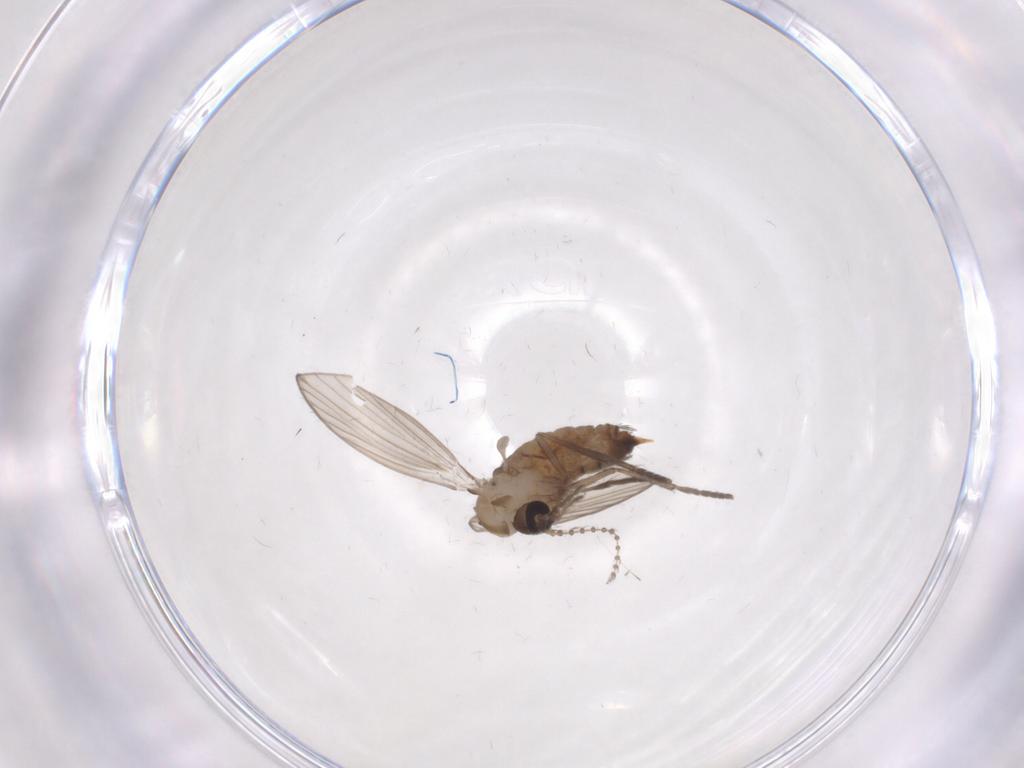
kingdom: Animalia
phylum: Arthropoda
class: Insecta
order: Diptera
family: Psychodidae
